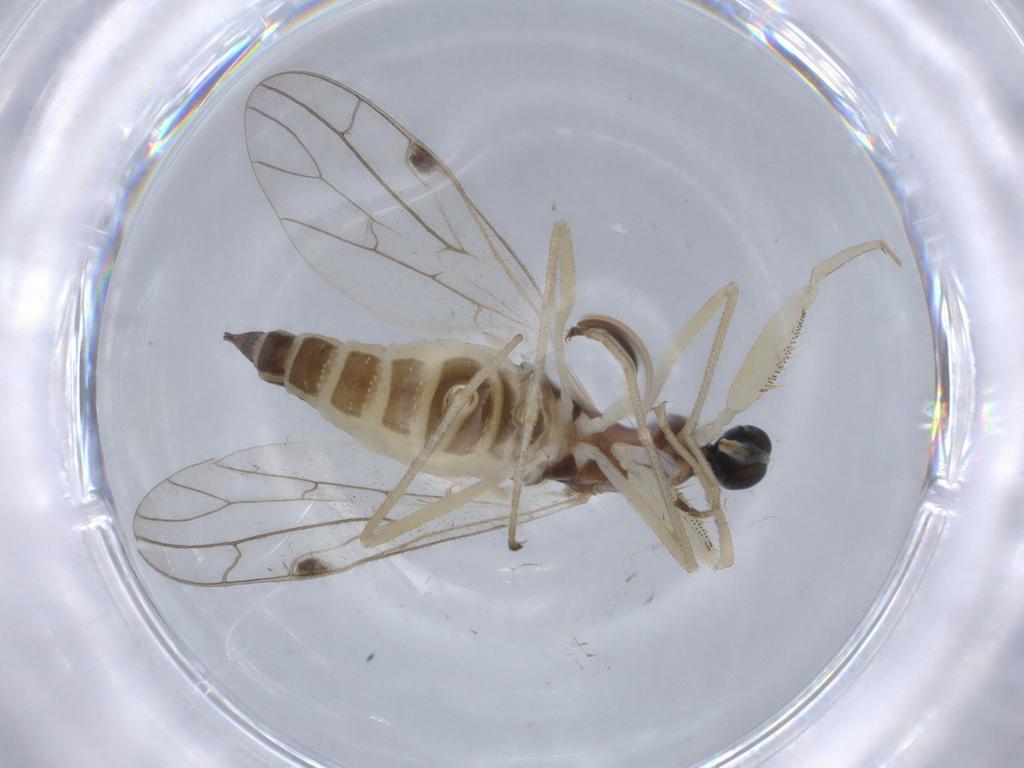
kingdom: Animalia
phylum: Arthropoda
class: Insecta
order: Diptera
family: Empididae
